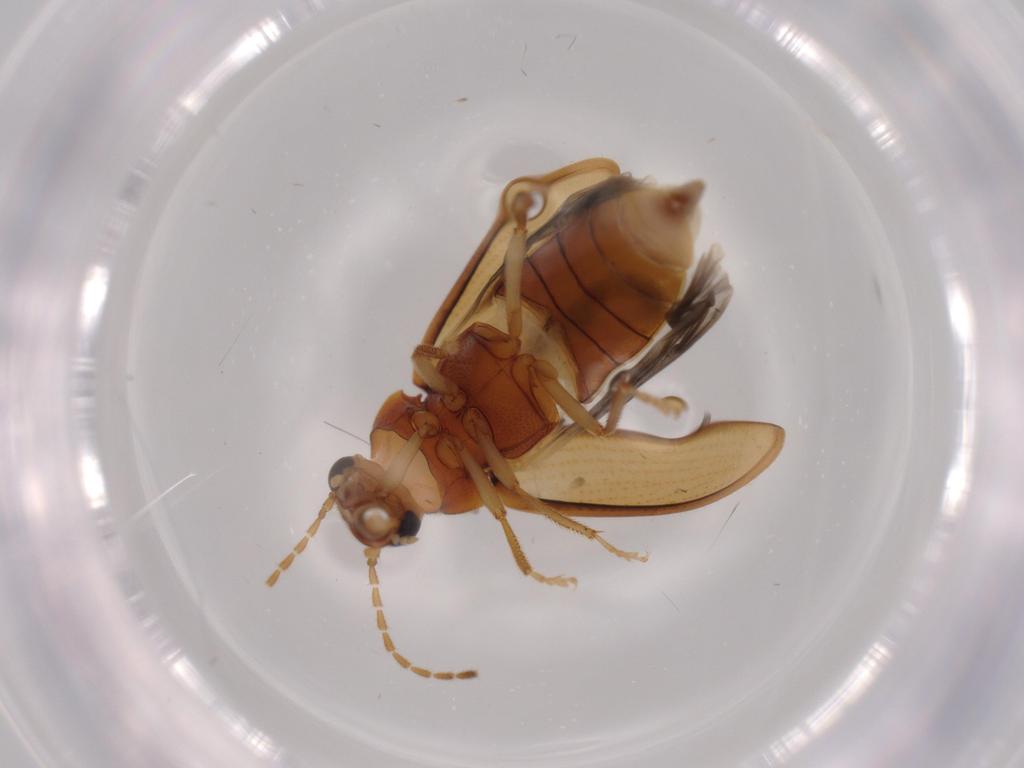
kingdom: Animalia
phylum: Arthropoda
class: Insecta
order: Coleoptera
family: Ptilodactylidae
